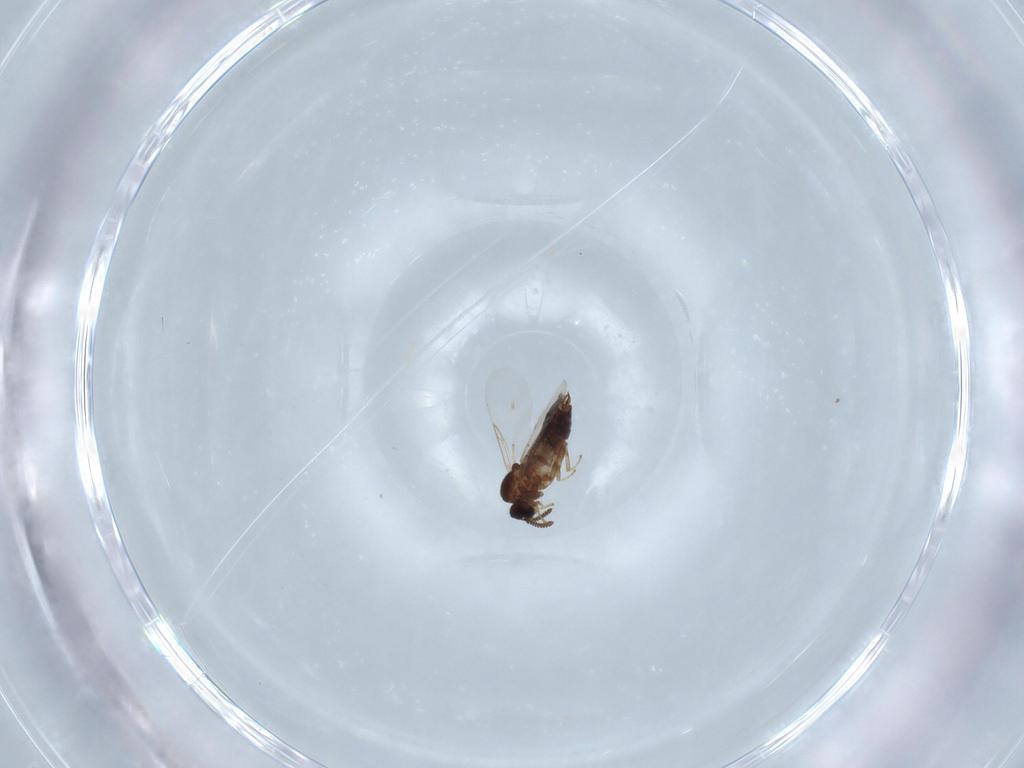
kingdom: Animalia
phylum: Arthropoda
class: Insecta
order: Diptera
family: Scatopsidae
